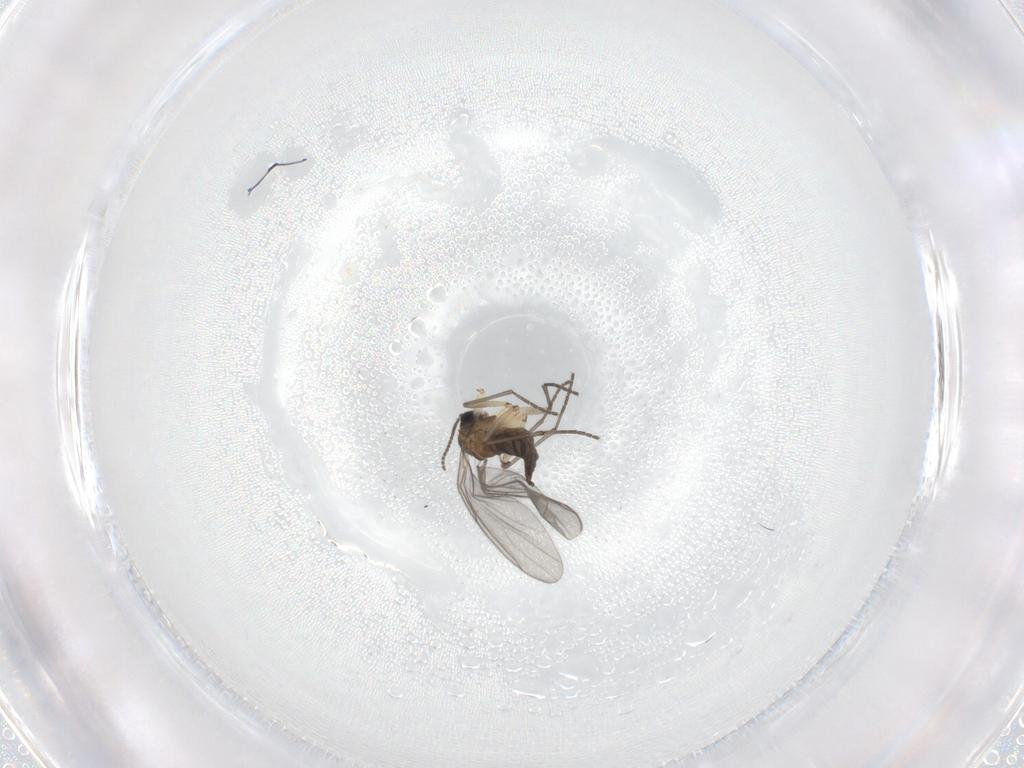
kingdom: Animalia
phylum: Arthropoda
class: Insecta
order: Diptera
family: Sciaridae
